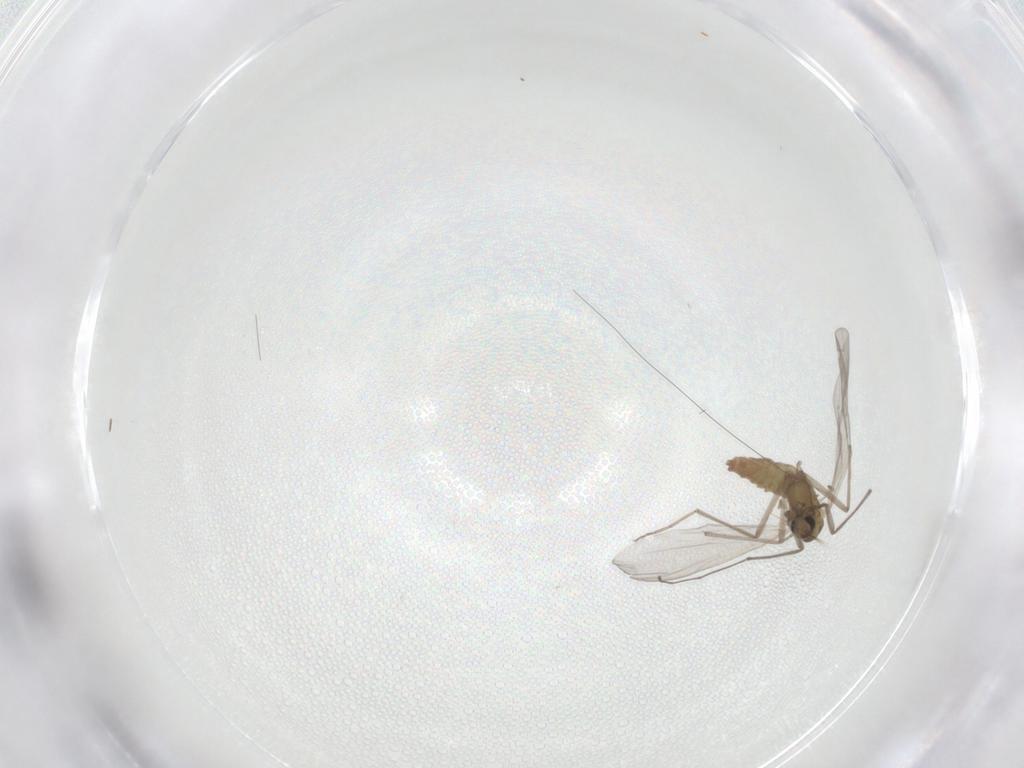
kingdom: Animalia
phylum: Arthropoda
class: Insecta
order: Diptera
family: Chironomidae
